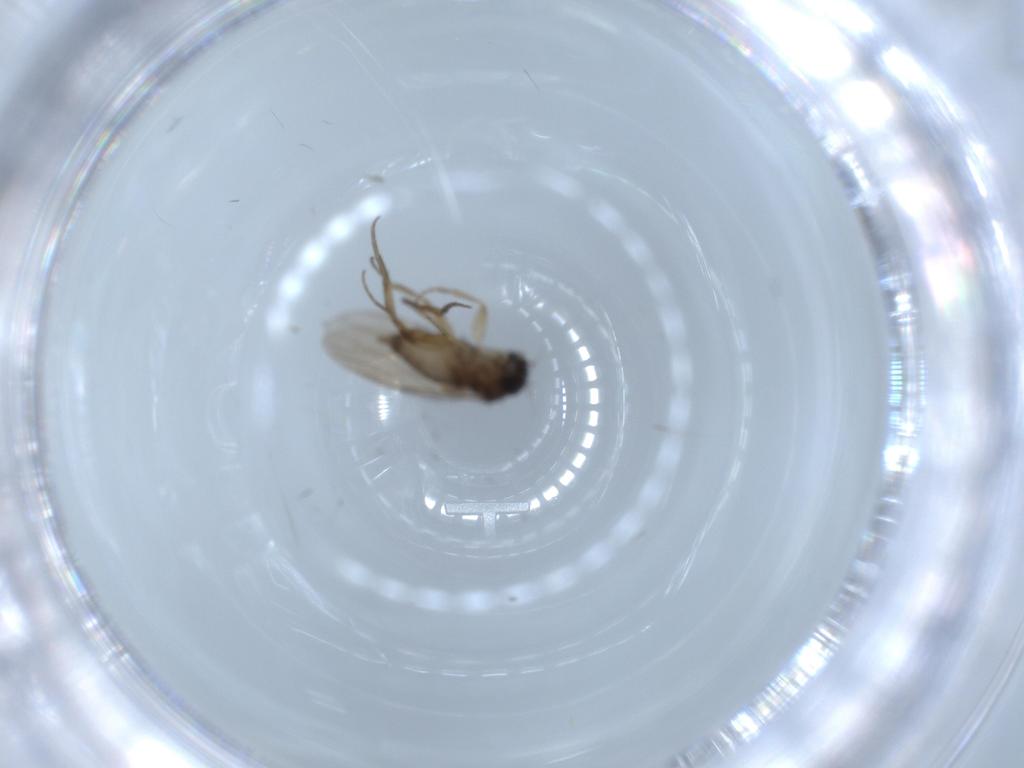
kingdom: Animalia
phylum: Arthropoda
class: Insecta
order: Diptera
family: Phoridae
